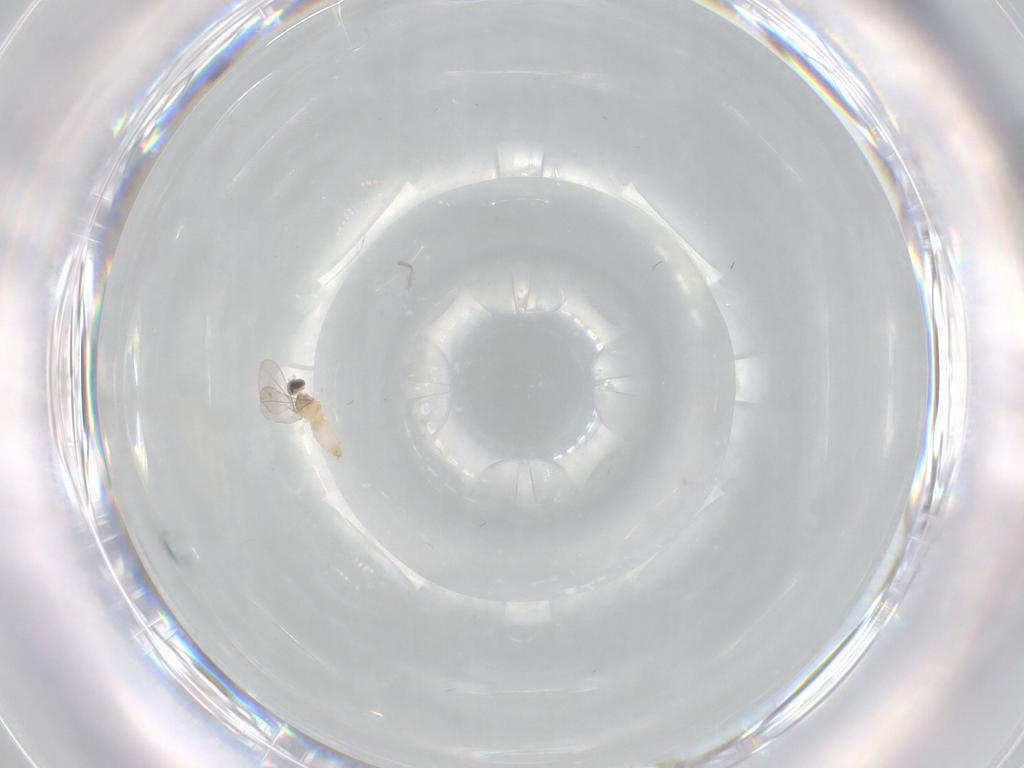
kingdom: Animalia
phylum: Arthropoda
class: Insecta
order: Diptera
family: Cecidomyiidae
